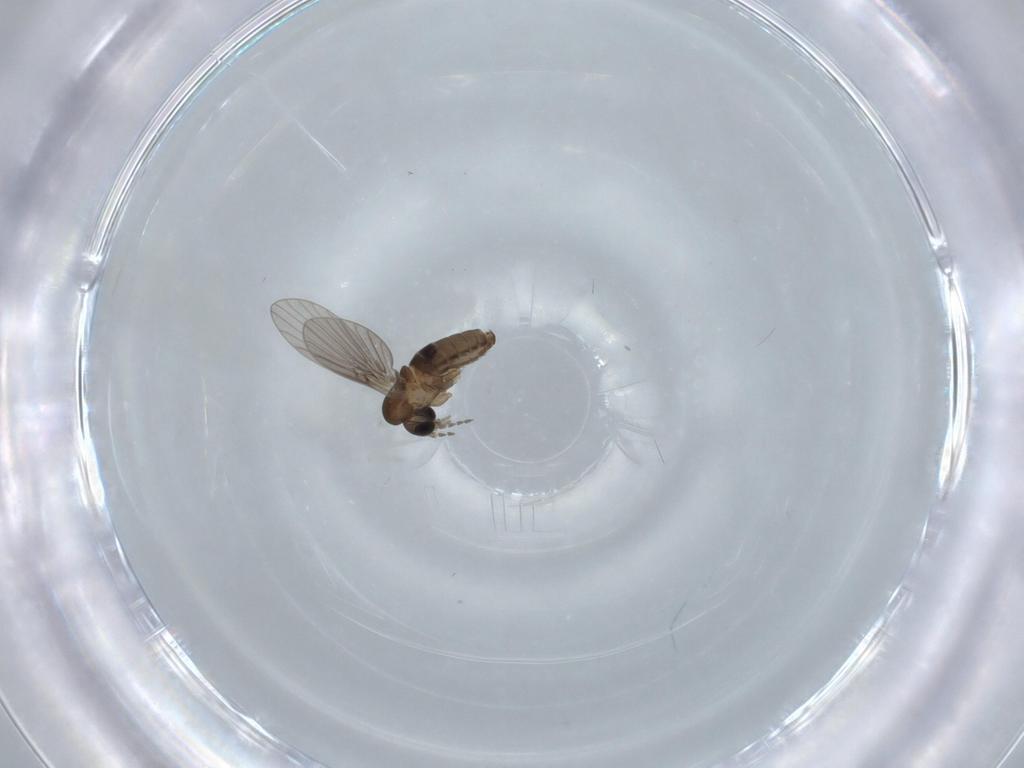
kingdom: Animalia
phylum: Arthropoda
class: Insecta
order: Diptera
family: Psychodidae
